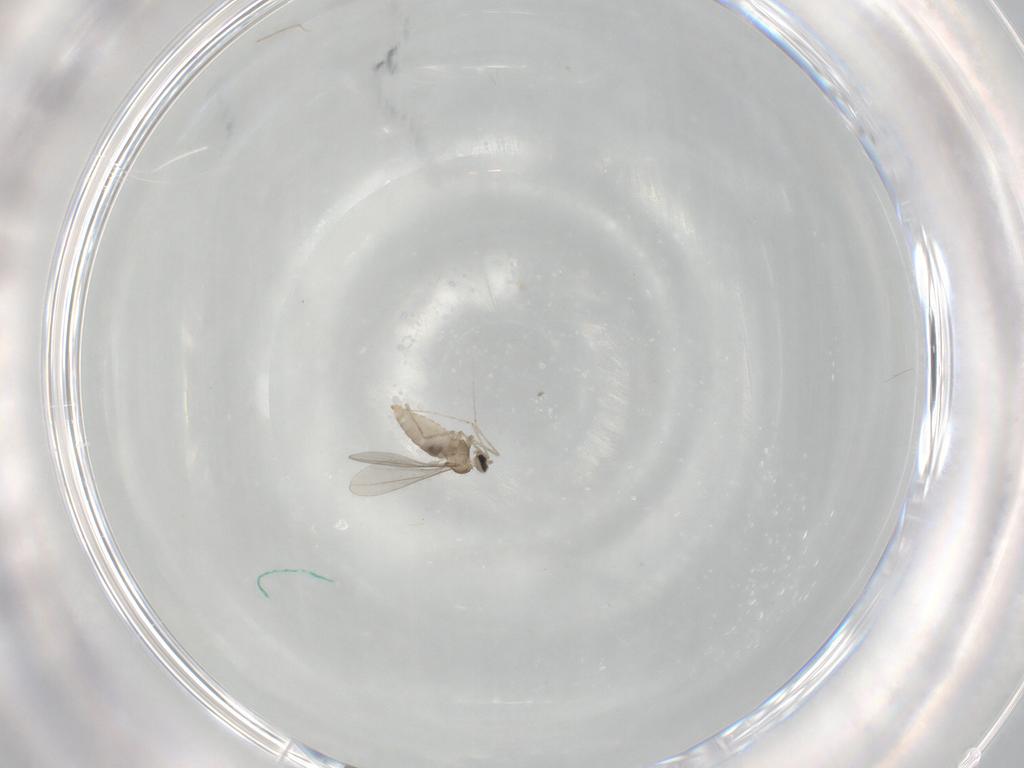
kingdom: Animalia
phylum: Arthropoda
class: Insecta
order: Diptera
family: Cecidomyiidae
